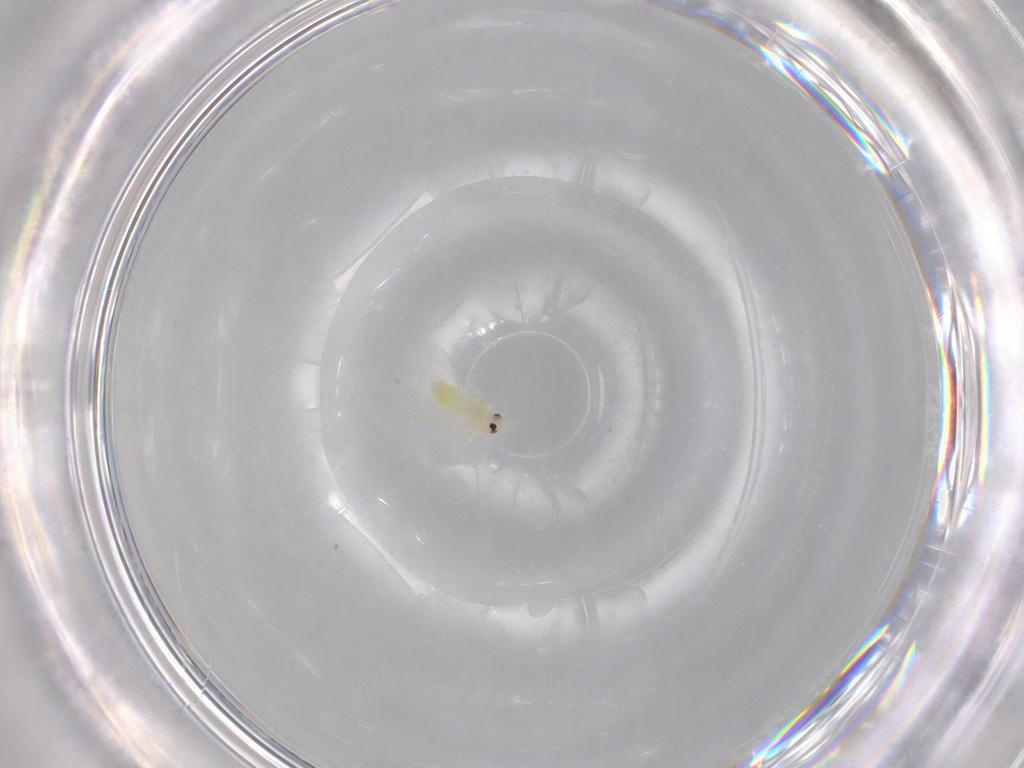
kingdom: Animalia
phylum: Arthropoda
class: Insecta
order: Hemiptera
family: Aleyrodidae
